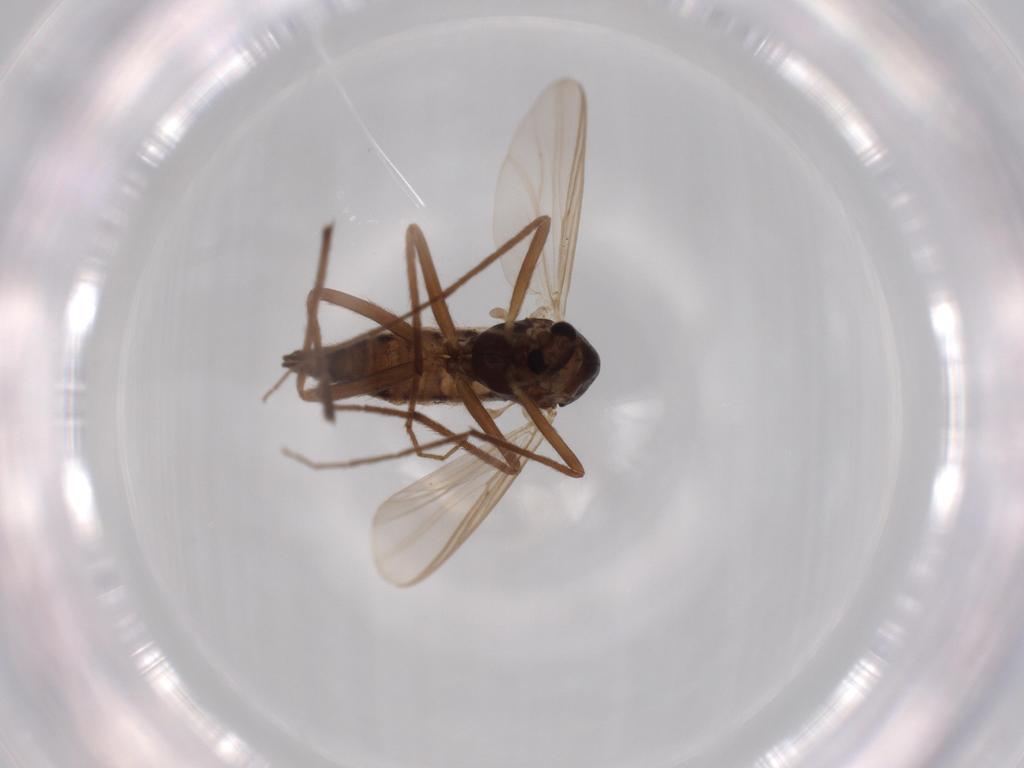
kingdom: Animalia
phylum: Arthropoda
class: Insecta
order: Diptera
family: Chironomidae
